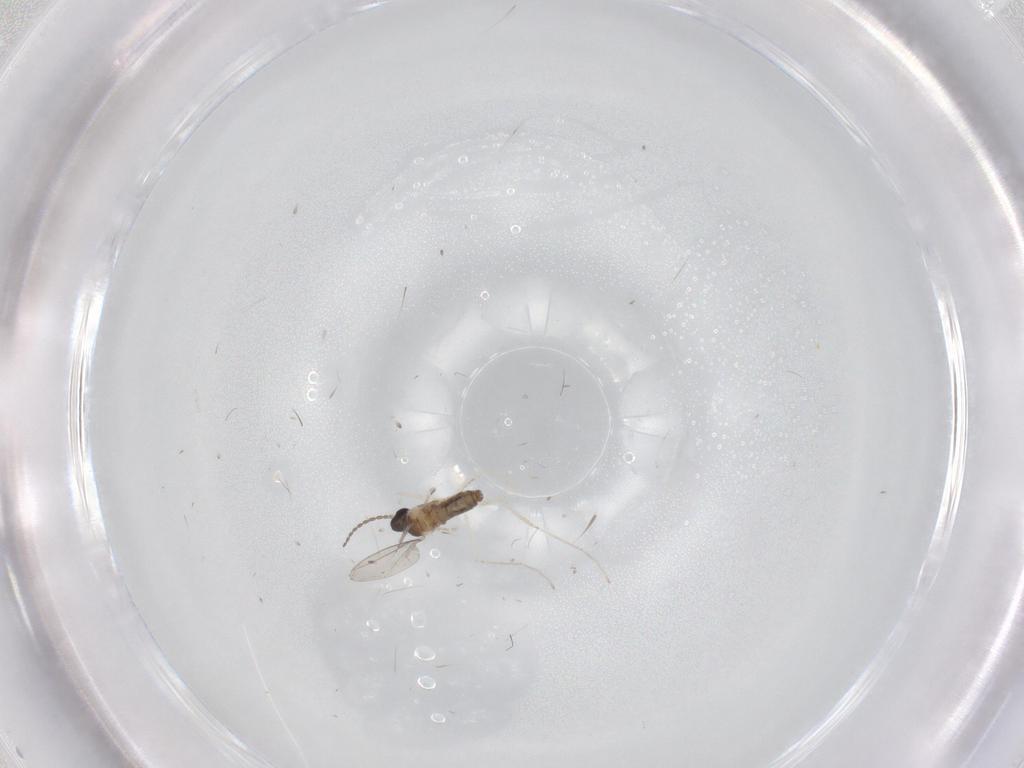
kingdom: Animalia
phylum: Arthropoda
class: Insecta
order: Diptera
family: Cecidomyiidae
